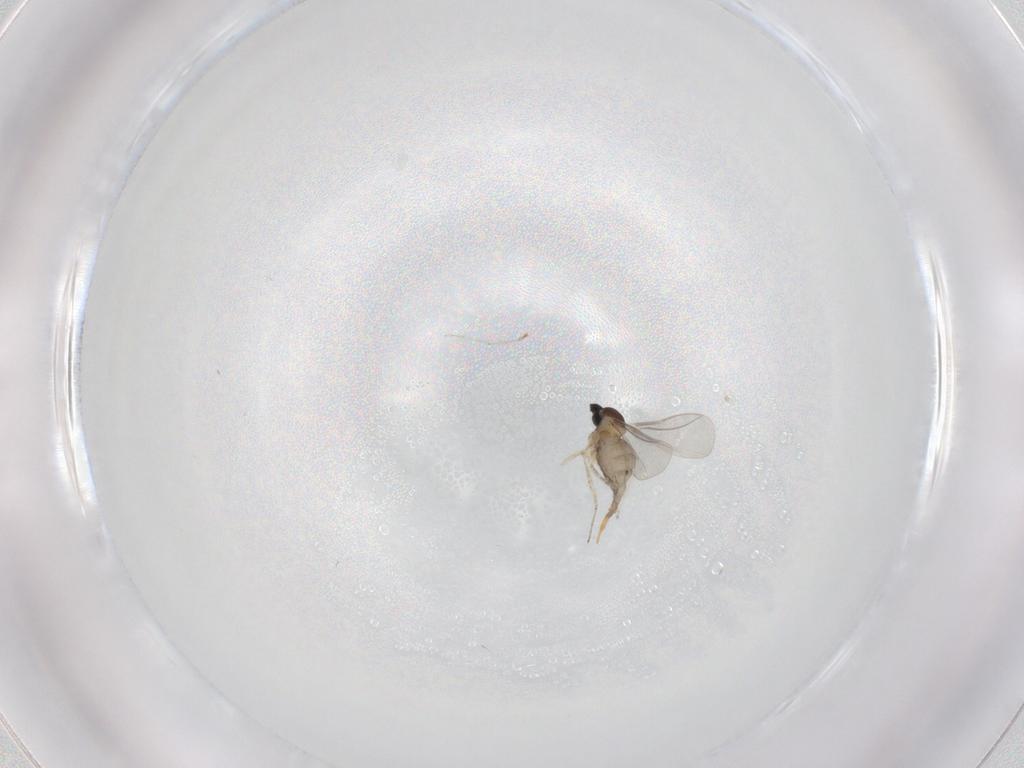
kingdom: Animalia
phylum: Arthropoda
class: Insecta
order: Diptera
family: Cecidomyiidae
